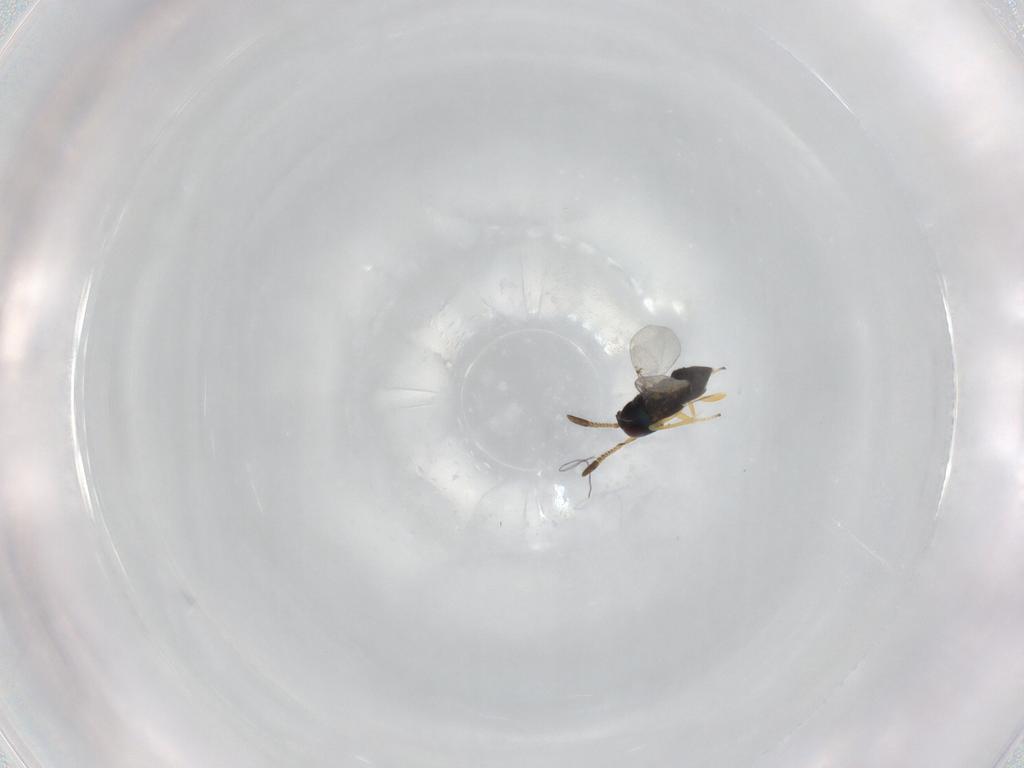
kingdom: Animalia
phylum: Arthropoda
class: Insecta
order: Hymenoptera
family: Encyrtidae
